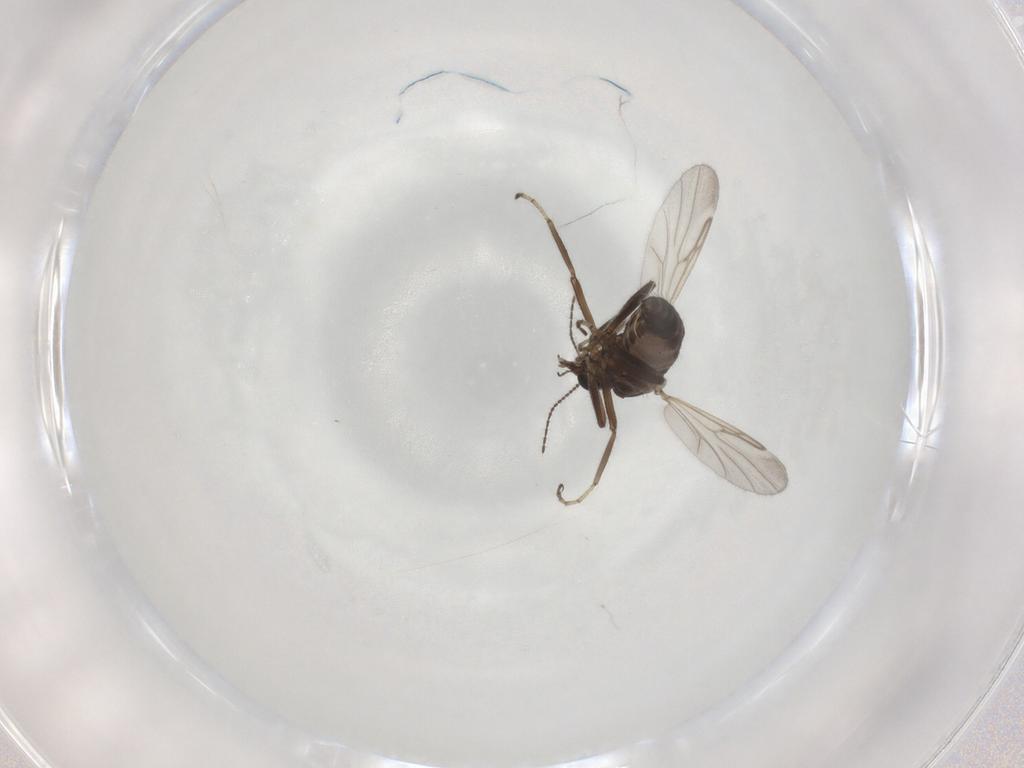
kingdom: Animalia
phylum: Arthropoda
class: Insecta
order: Diptera
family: Ceratopogonidae
